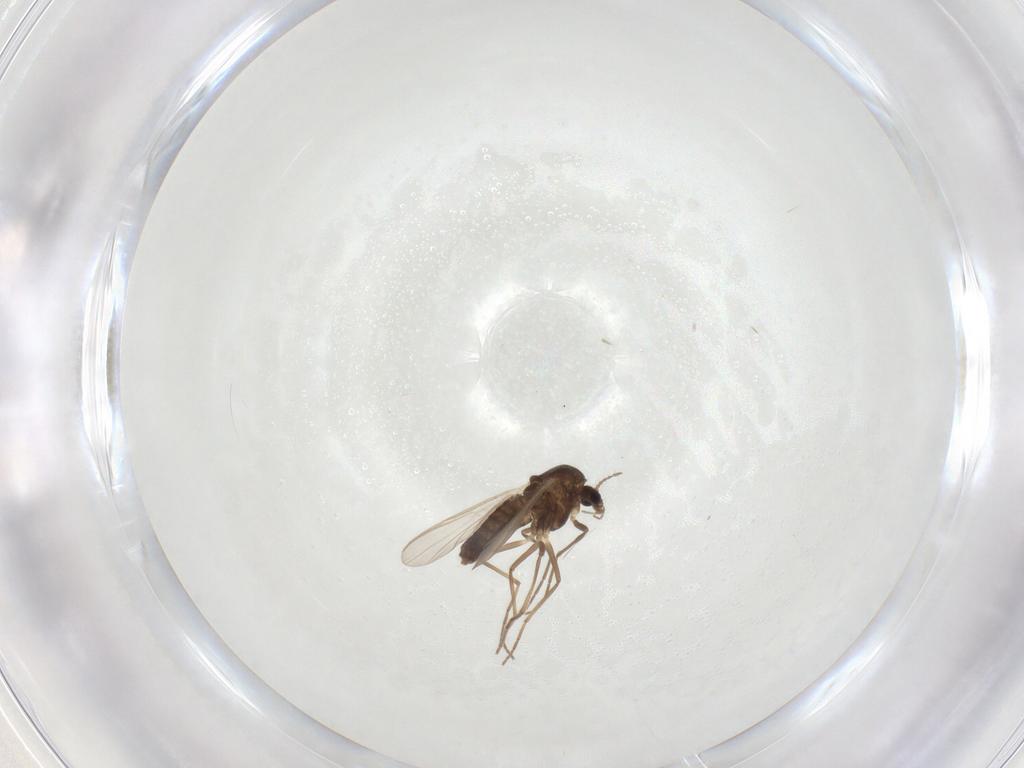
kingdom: Animalia
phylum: Arthropoda
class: Insecta
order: Diptera
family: Chironomidae
